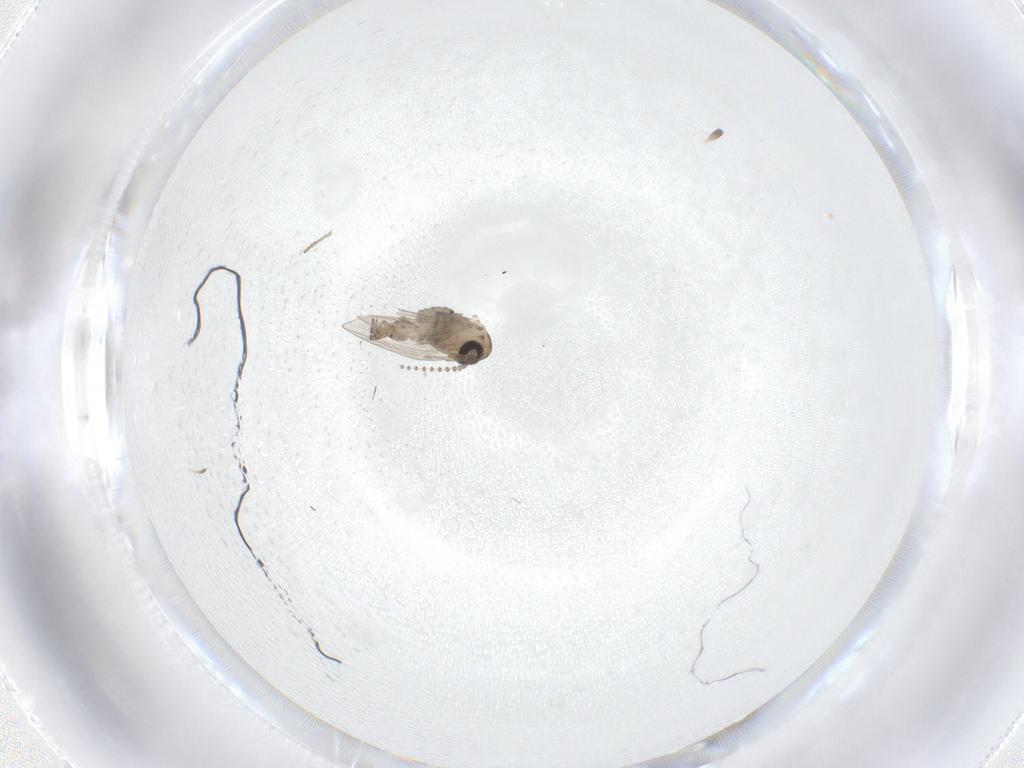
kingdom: Animalia
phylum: Arthropoda
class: Insecta
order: Diptera
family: Psychodidae
